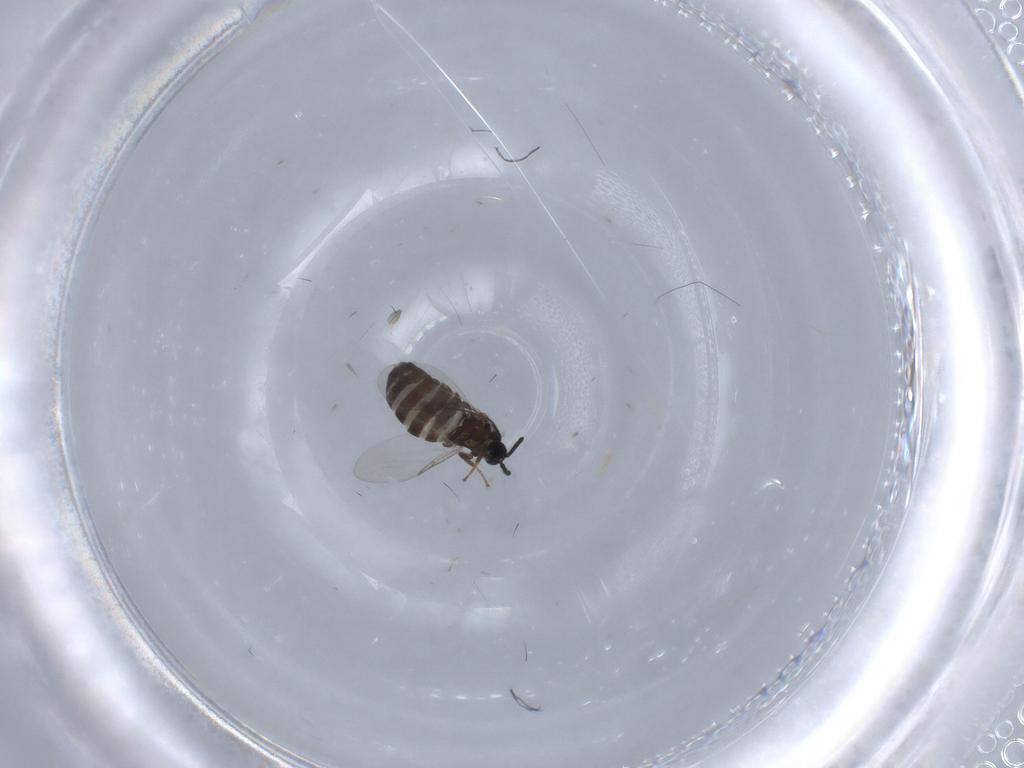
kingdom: Animalia
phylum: Arthropoda
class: Insecta
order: Diptera
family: Scatopsidae
